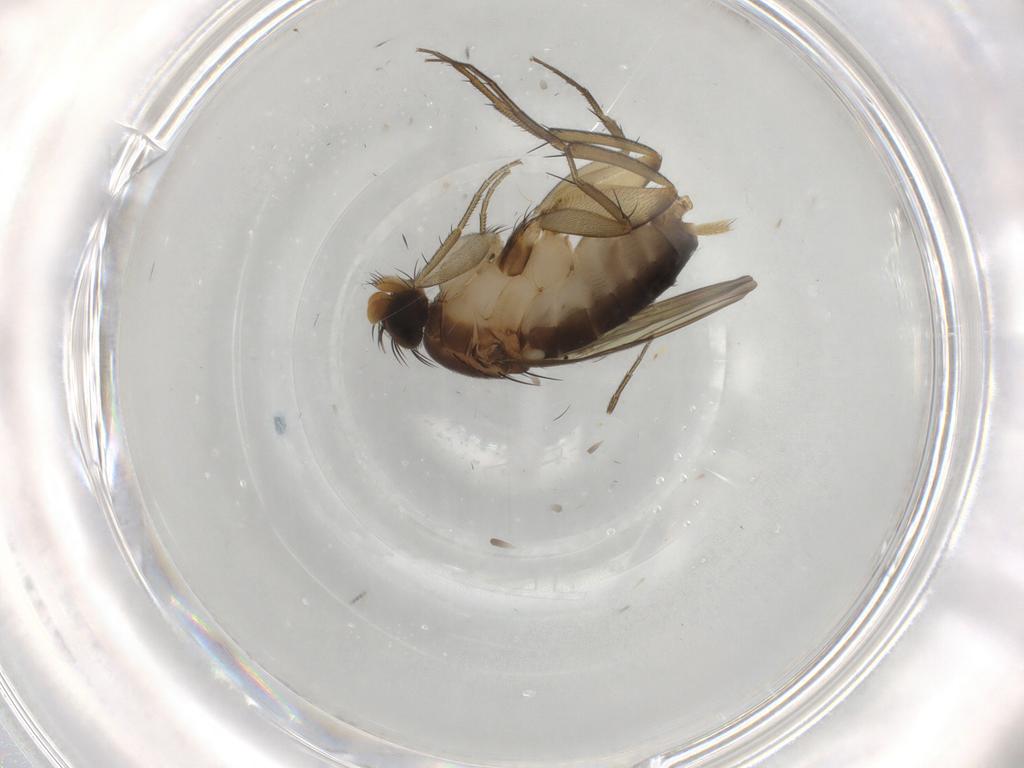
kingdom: Animalia
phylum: Arthropoda
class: Insecta
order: Diptera
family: Phoridae
